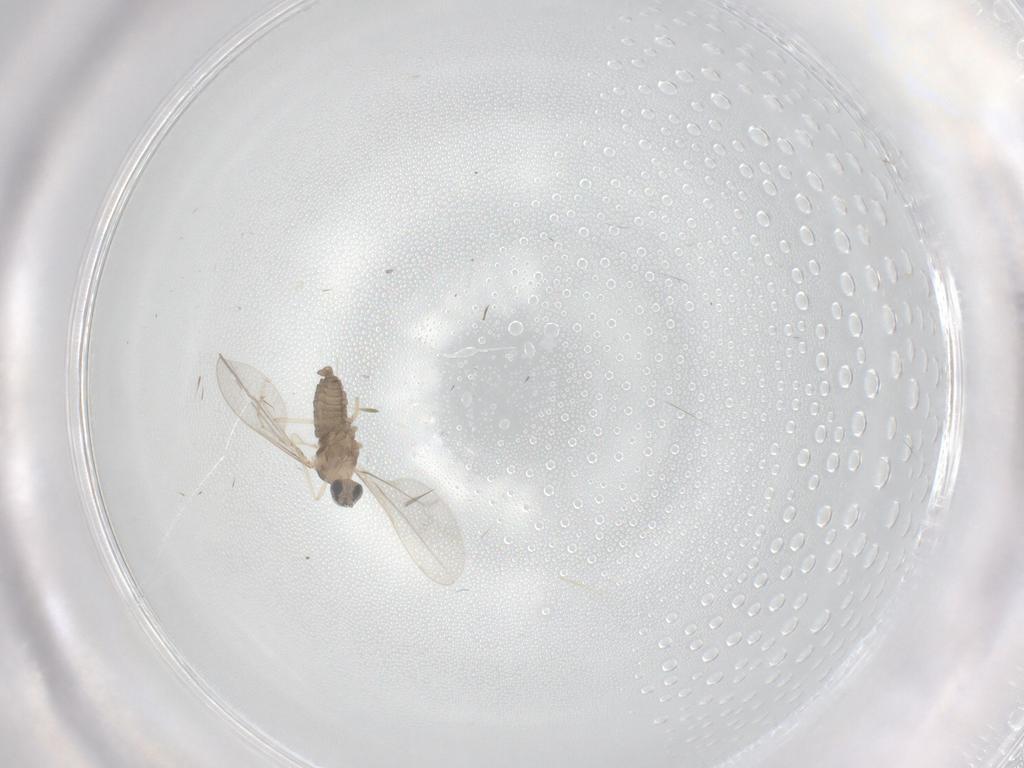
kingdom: Animalia
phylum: Arthropoda
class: Insecta
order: Diptera
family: Cecidomyiidae
